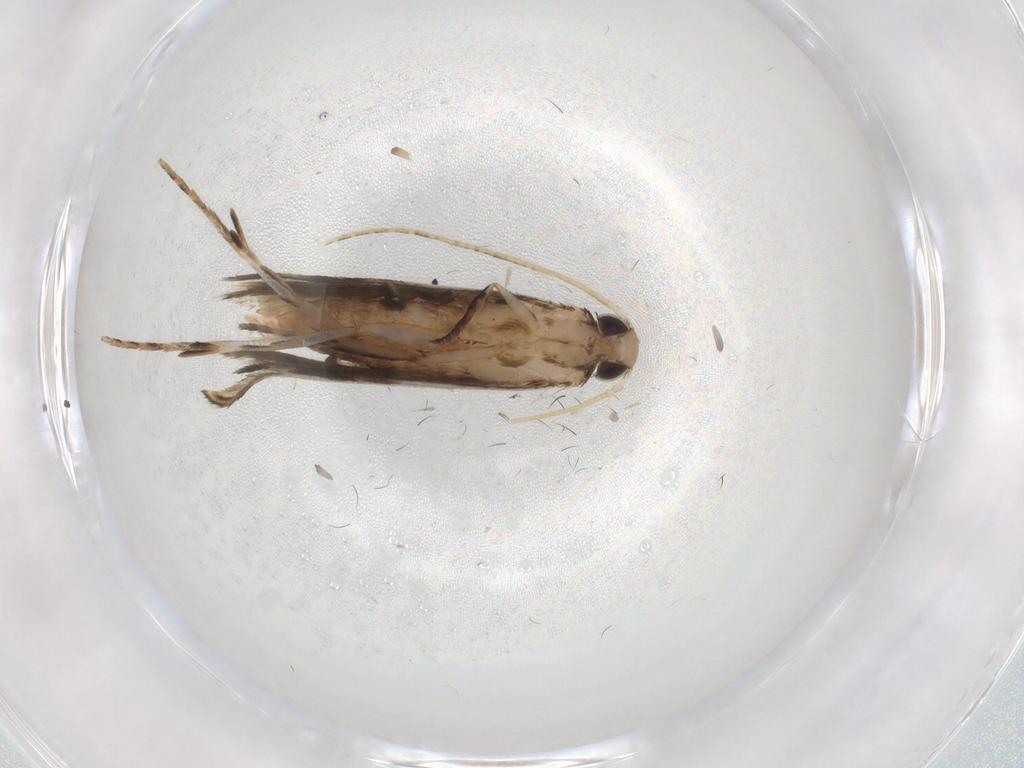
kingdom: Animalia
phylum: Arthropoda
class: Insecta
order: Lepidoptera
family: Gelechiidae
